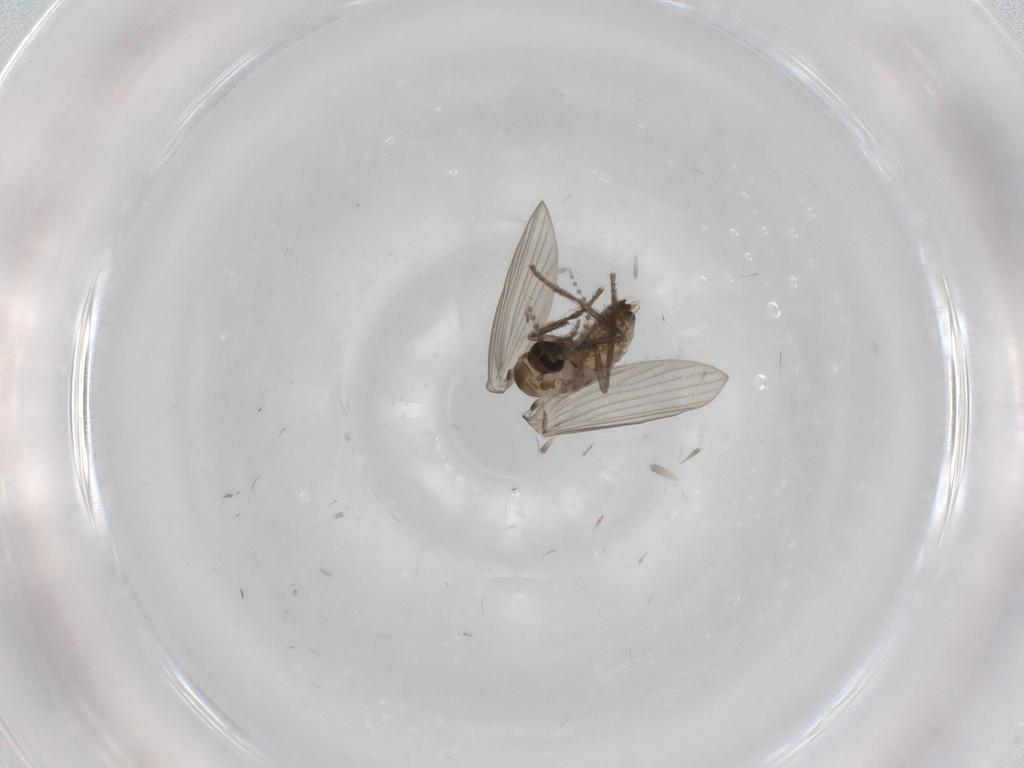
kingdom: Animalia
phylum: Arthropoda
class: Insecta
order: Diptera
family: Psychodidae
